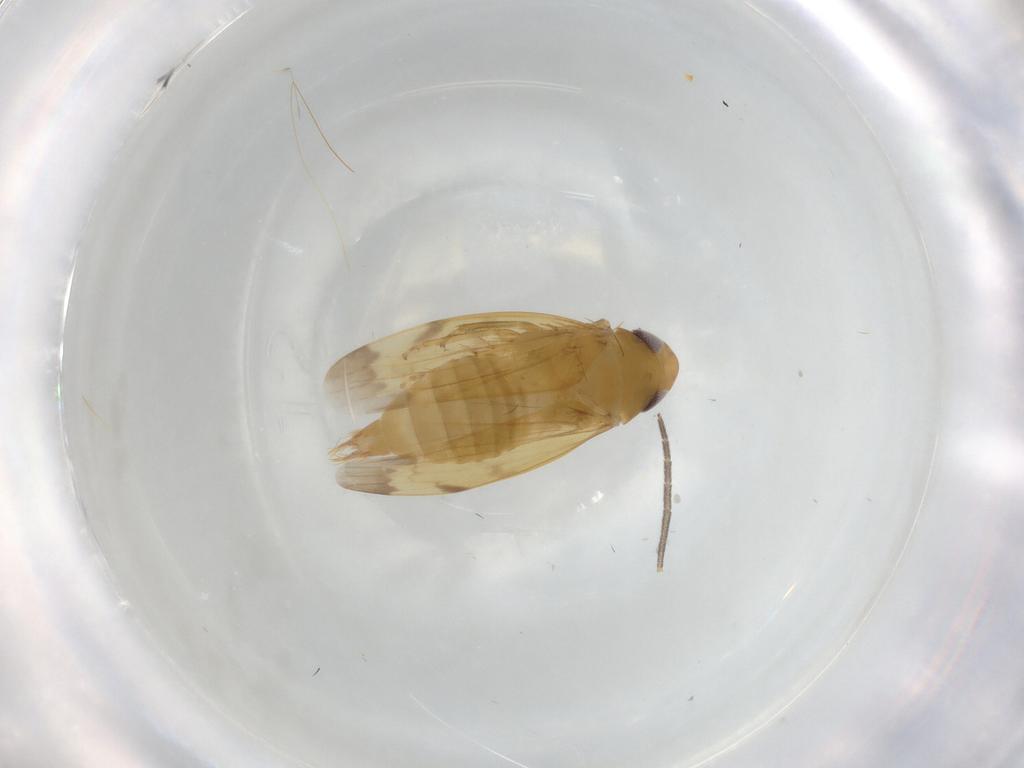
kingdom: Animalia
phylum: Arthropoda
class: Insecta
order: Hemiptera
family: Cicadellidae
